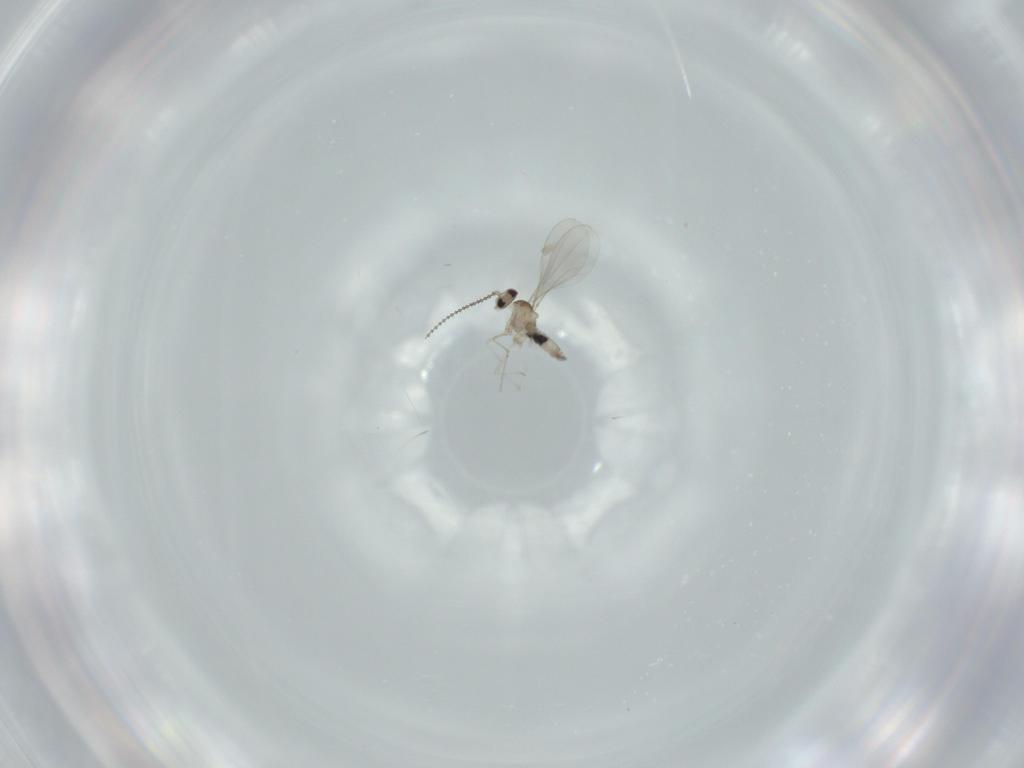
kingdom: Animalia
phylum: Arthropoda
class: Insecta
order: Diptera
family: Cecidomyiidae
